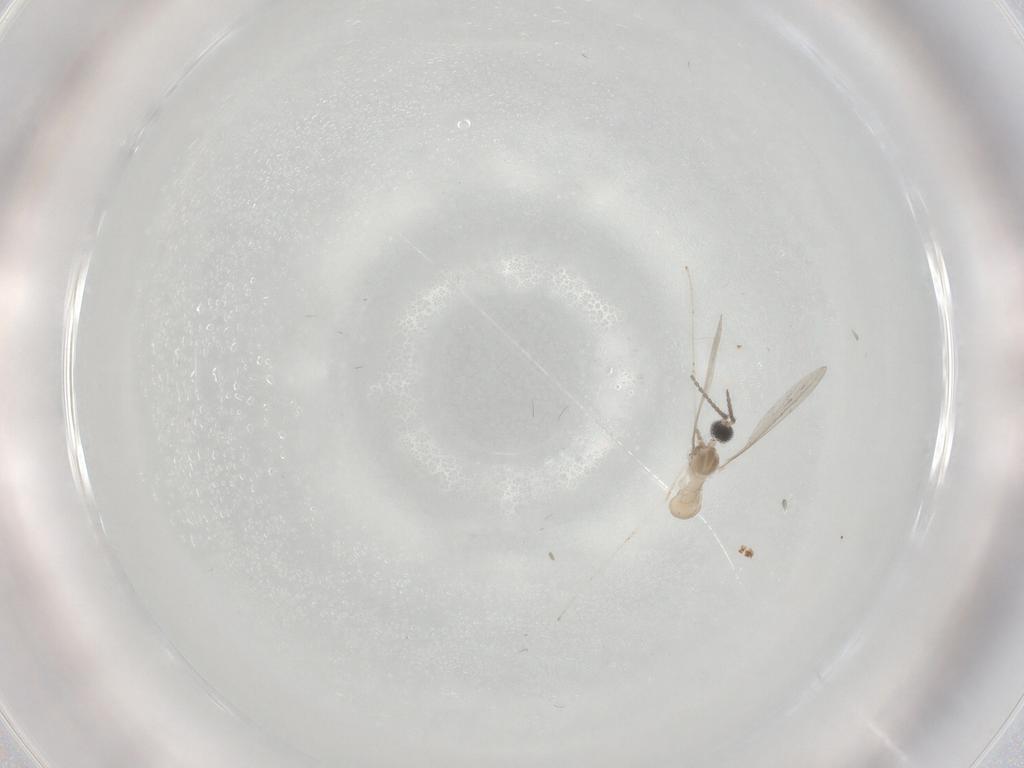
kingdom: Animalia
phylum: Arthropoda
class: Insecta
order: Diptera
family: Cecidomyiidae
